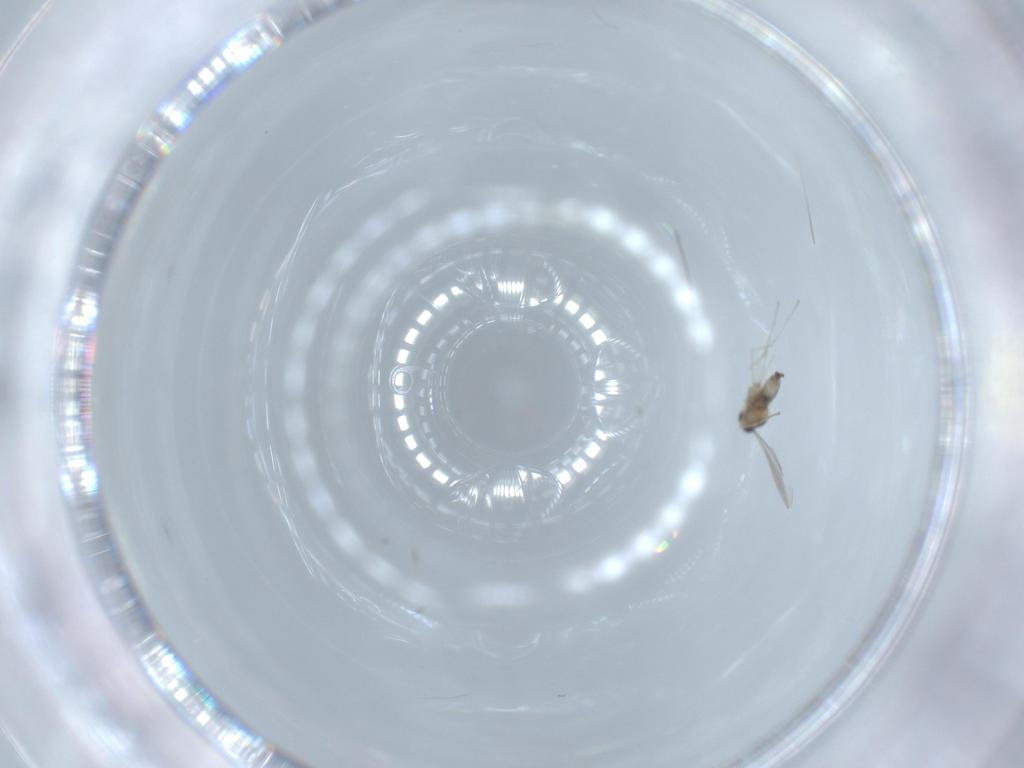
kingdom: Animalia
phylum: Arthropoda
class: Insecta
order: Diptera
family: Cecidomyiidae
